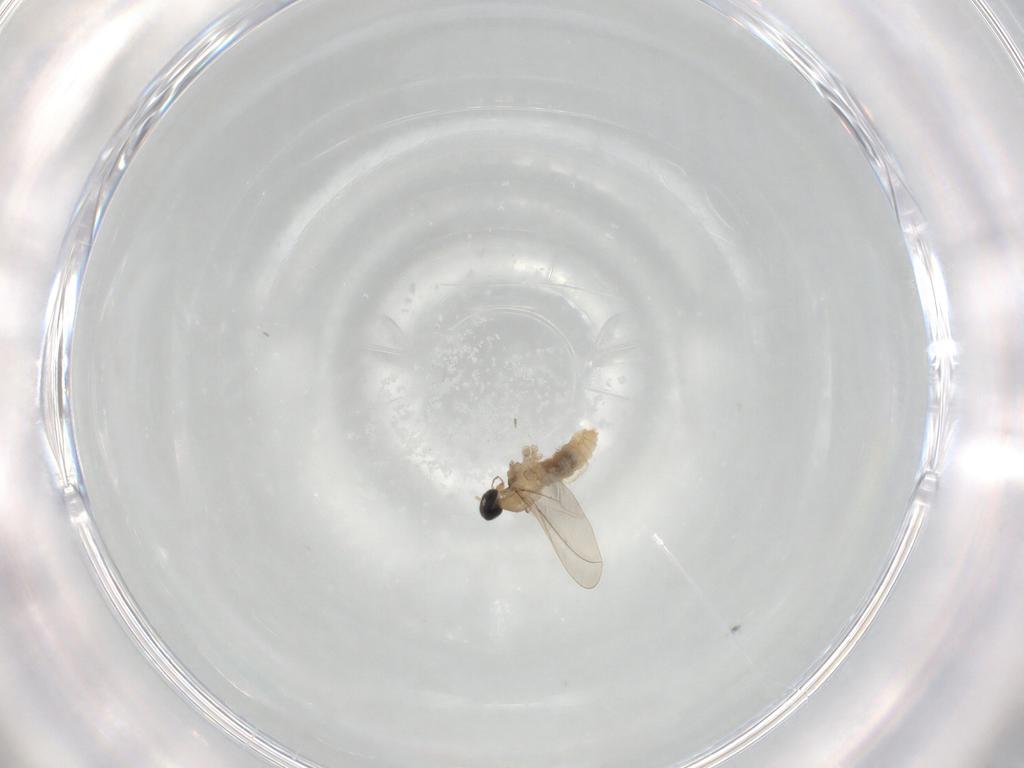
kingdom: Animalia
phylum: Arthropoda
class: Insecta
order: Diptera
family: Cecidomyiidae
